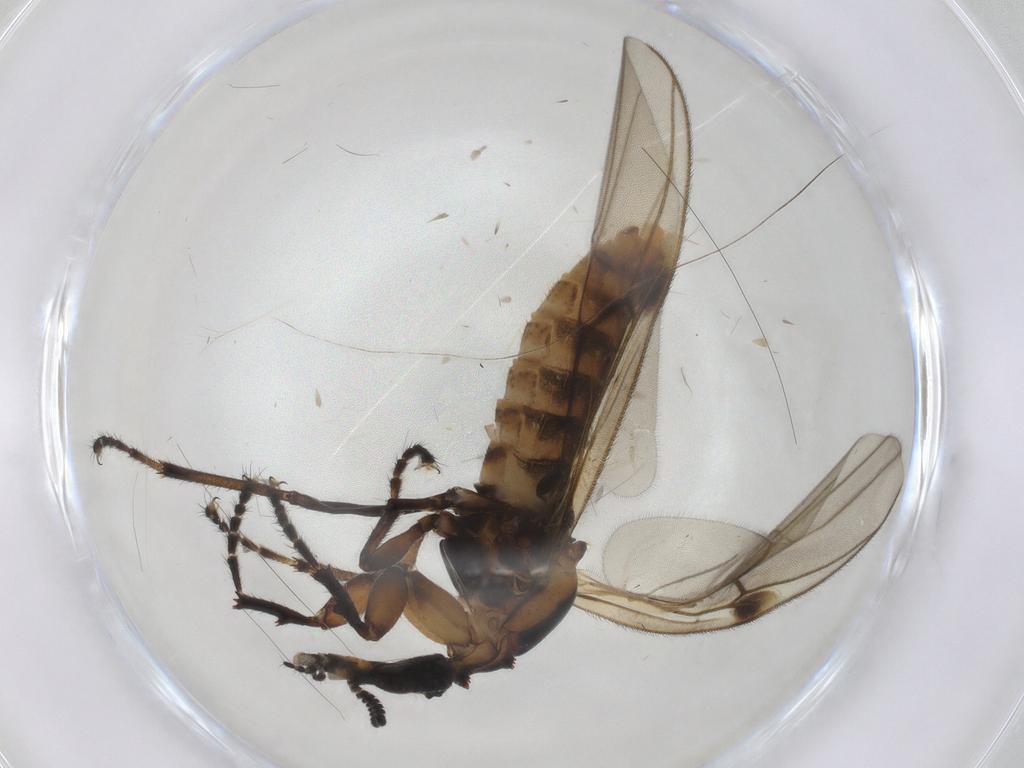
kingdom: Animalia
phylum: Arthropoda
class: Insecta
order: Diptera
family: Bibionidae
